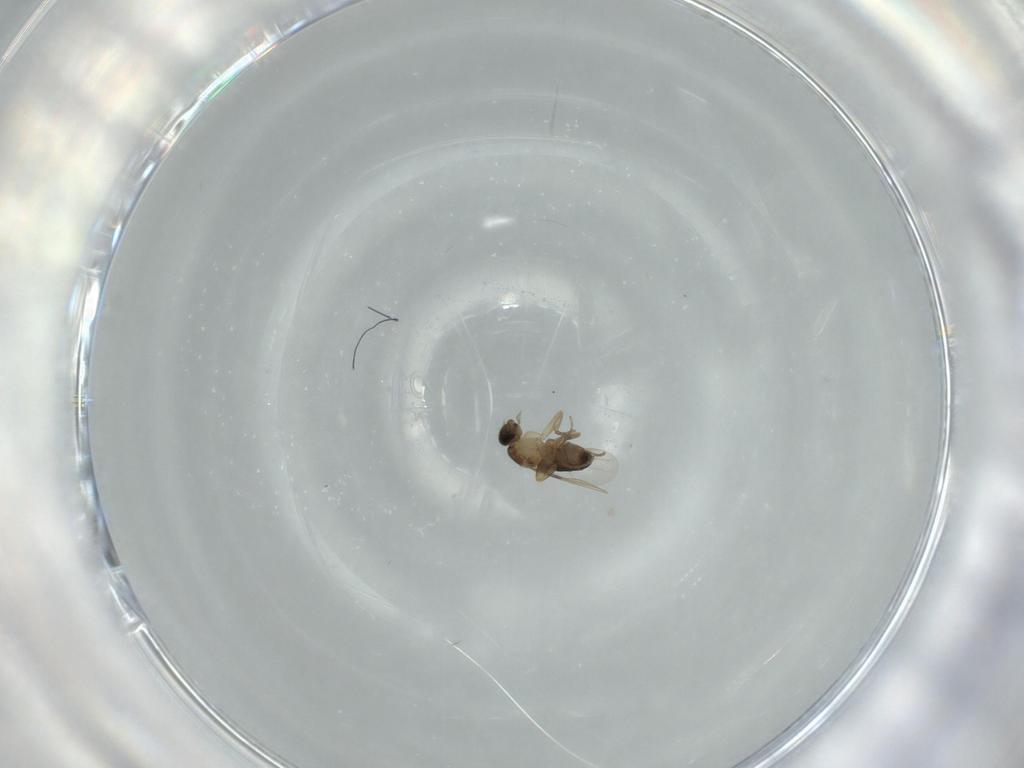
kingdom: Animalia
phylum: Arthropoda
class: Insecta
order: Diptera
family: Phoridae
